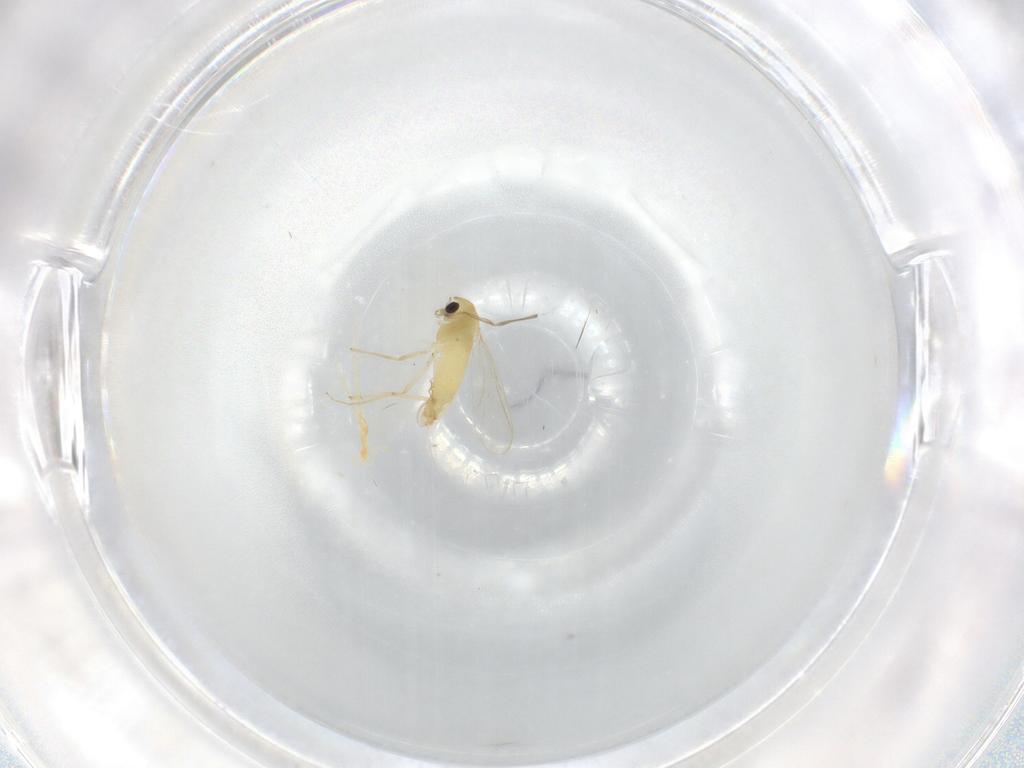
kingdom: Animalia
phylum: Arthropoda
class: Insecta
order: Diptera
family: Chironomidae
